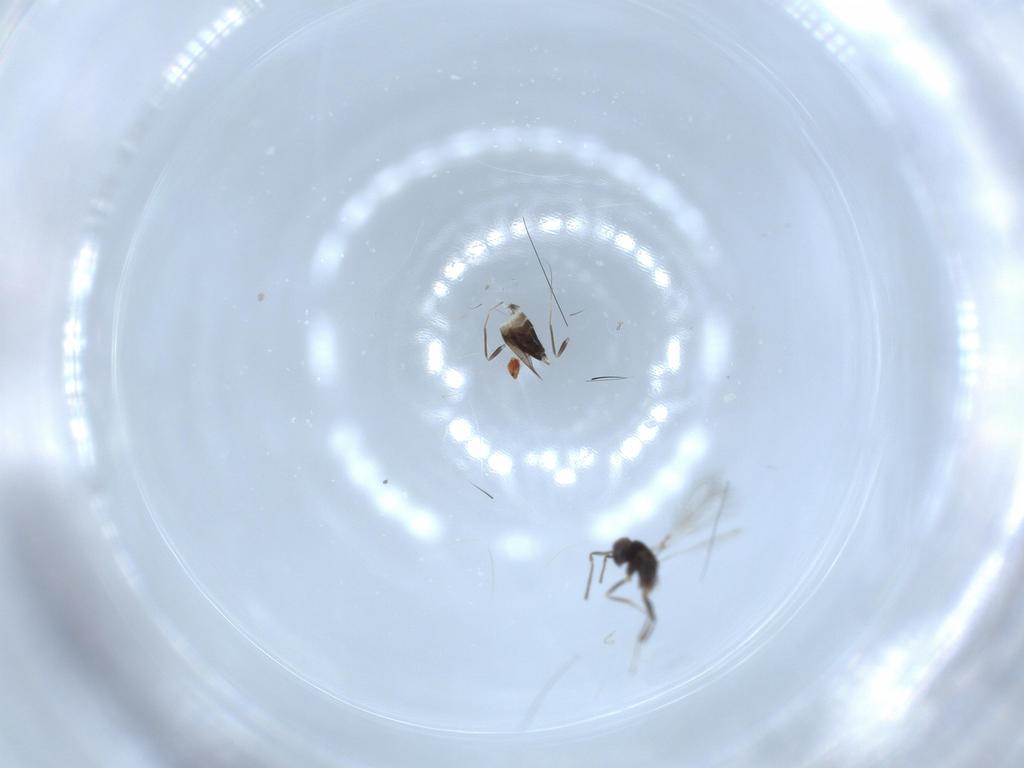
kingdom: Animalia
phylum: Arthropoda
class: Insecta
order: Hymenoptera
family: Mymaridae
